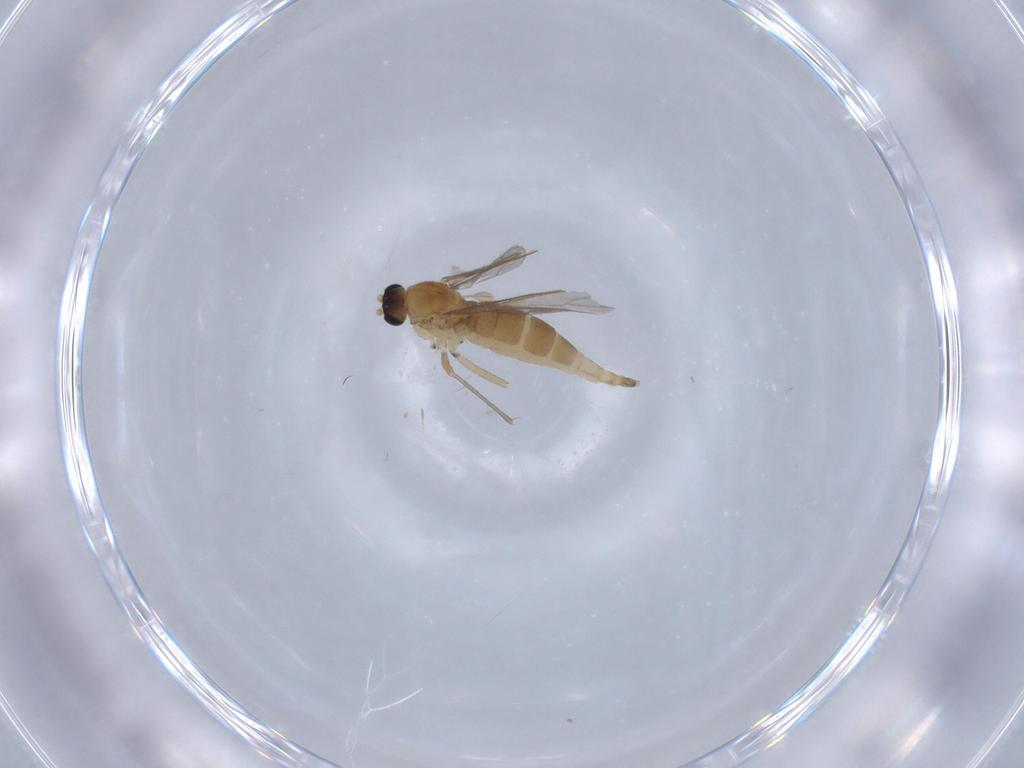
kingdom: Animalia
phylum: Arthropoda
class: Insecta
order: Diptera
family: Sciaridae
